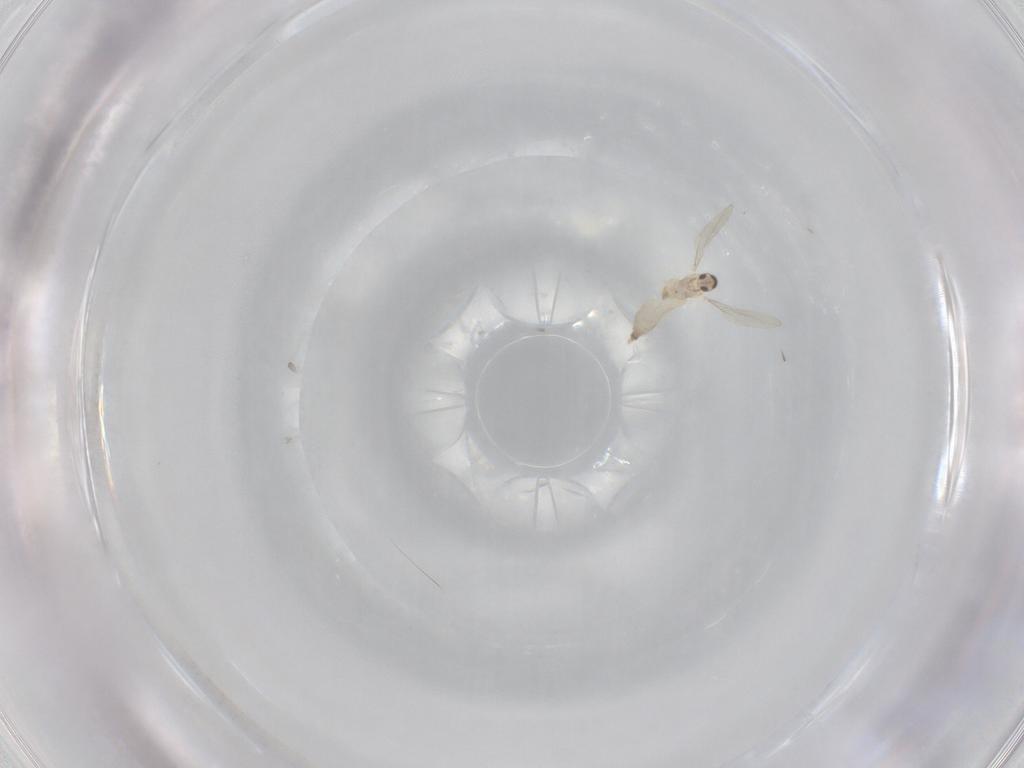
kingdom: Animalia
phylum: Arthropoda
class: Insecta
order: Diptera
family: Cecidomyiidae
